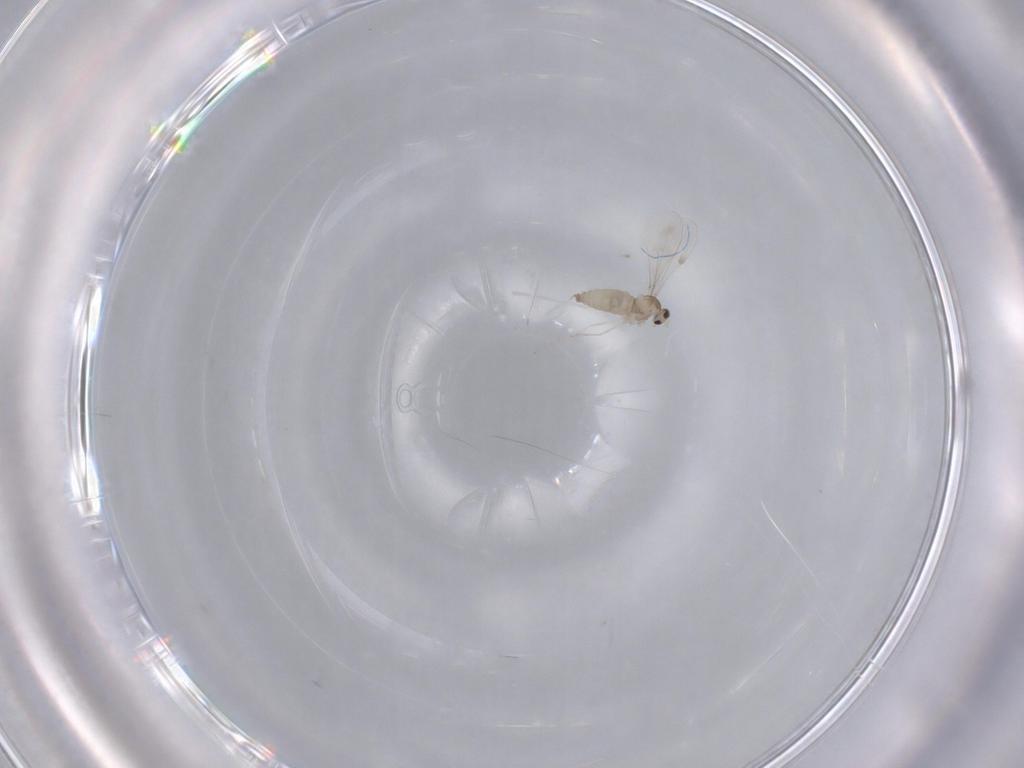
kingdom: Animalia
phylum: Arthropoda
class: Insecta
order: Diptera
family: Cecidomyiidae
